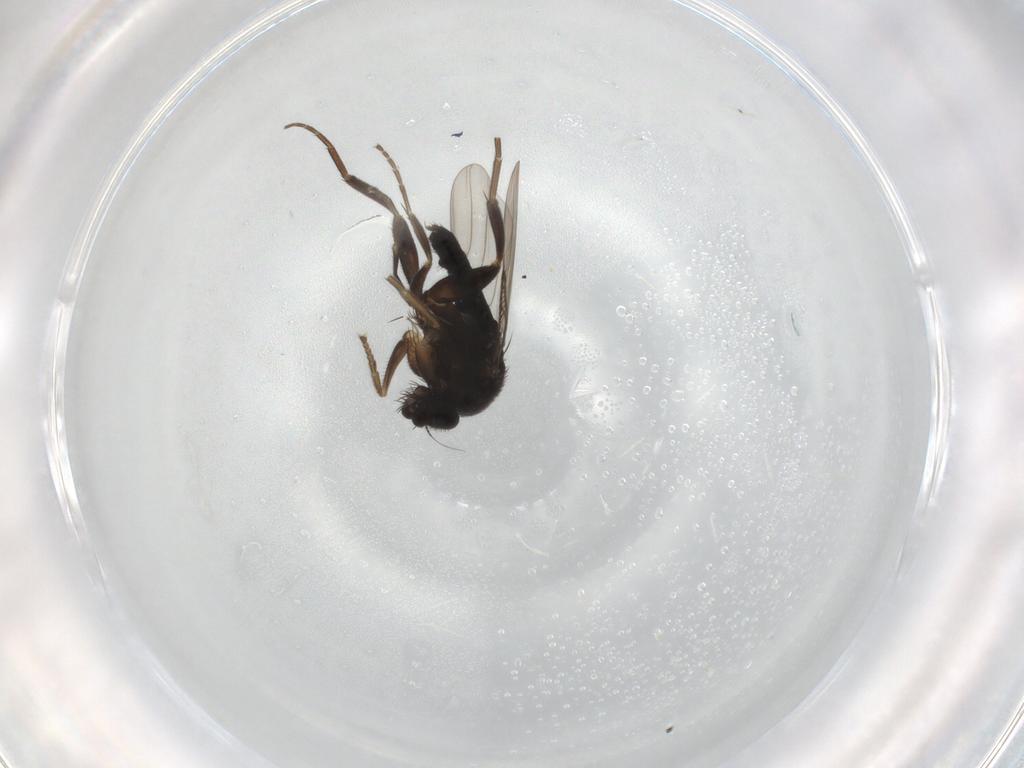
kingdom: Animalia
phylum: Arthropoda
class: Insecta
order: Diptera
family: Phoridae
